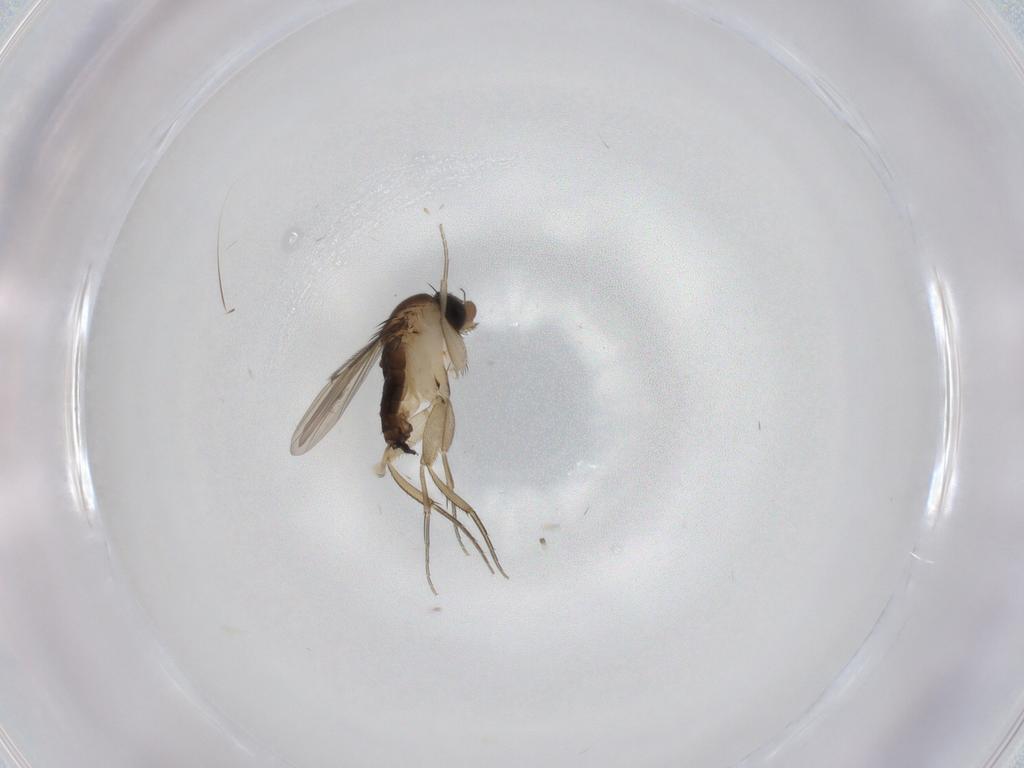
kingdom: Animalia
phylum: Arthropoda
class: Insecta
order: Diptera
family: Phoridae
